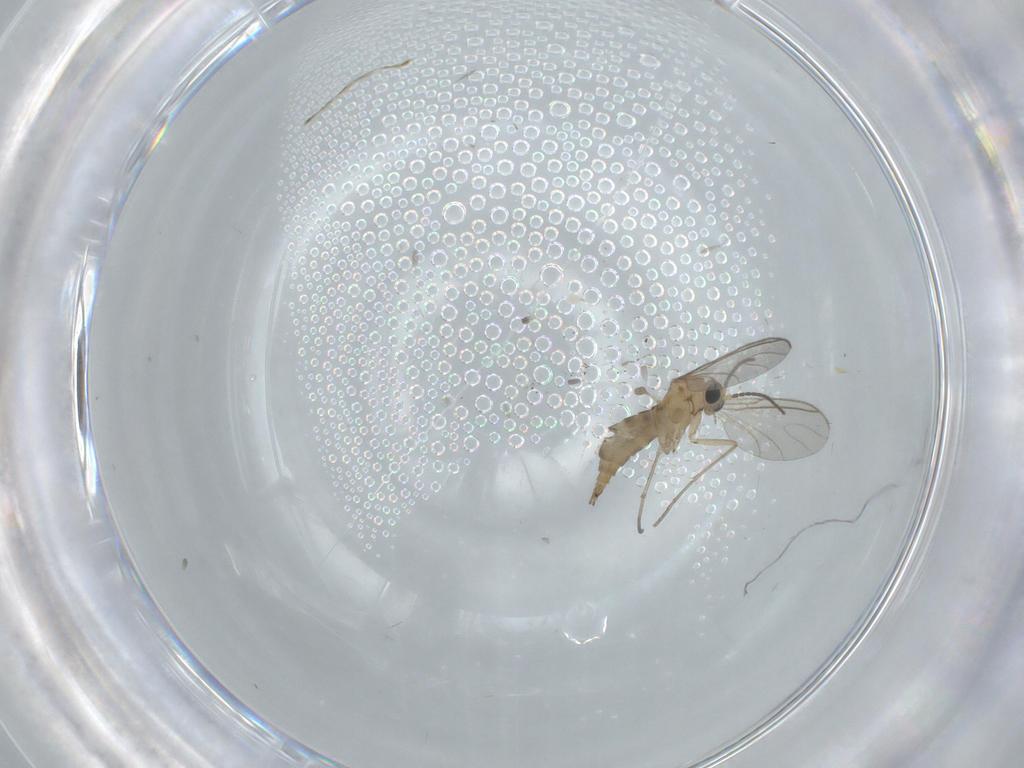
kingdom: Animalia
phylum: Arthropoda
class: Insecta
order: Diptera
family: Sciaridae
